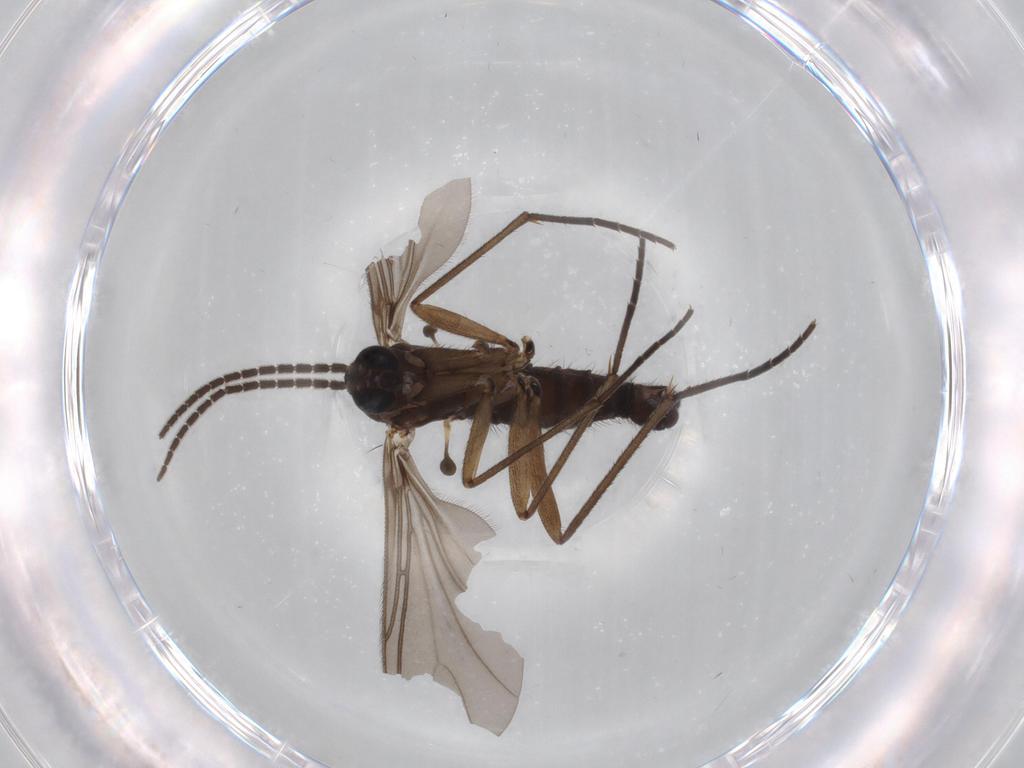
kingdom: Animalia
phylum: Arthropoda
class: Insecta
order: Diptera
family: Sciaridae
